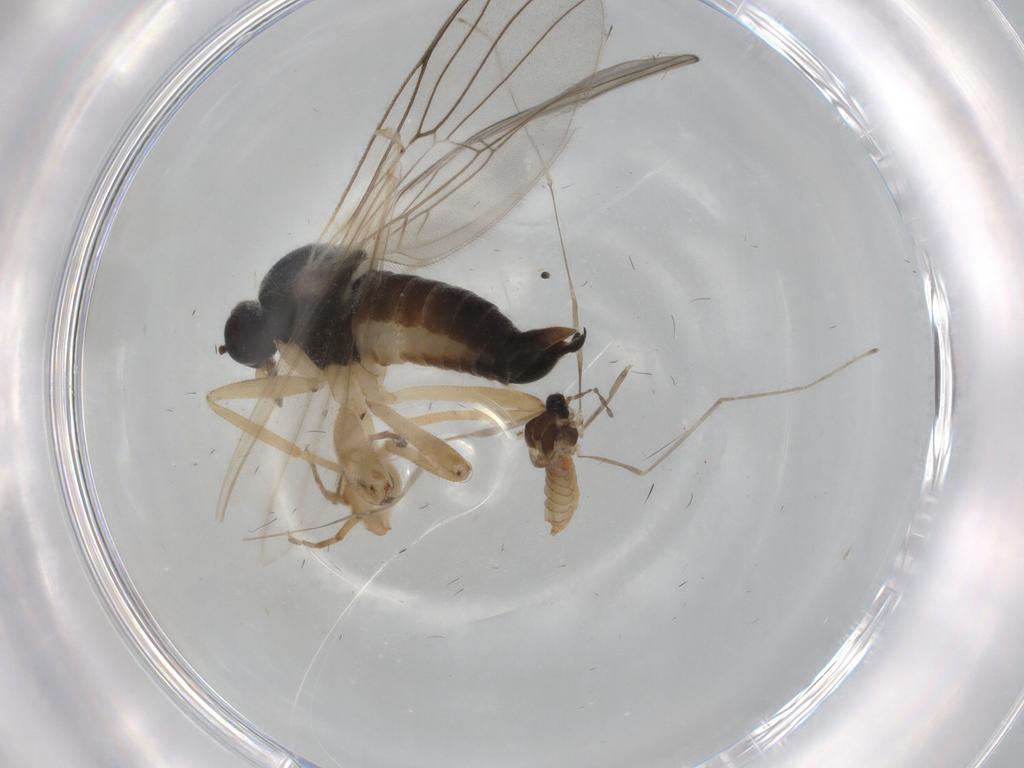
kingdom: Animalia
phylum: Arthropoda
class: Insecta
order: Diptera
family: Hybotidae
